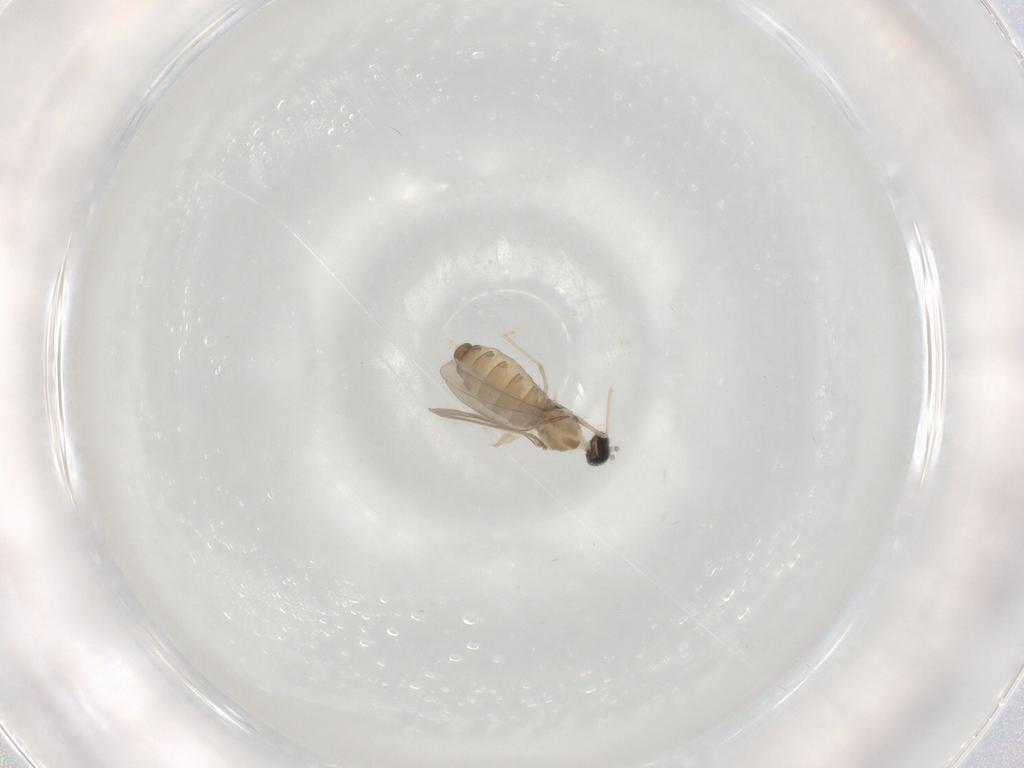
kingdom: Animalia
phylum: Arthropoda
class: Insecta
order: Diptera
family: Cecidomyiidae
